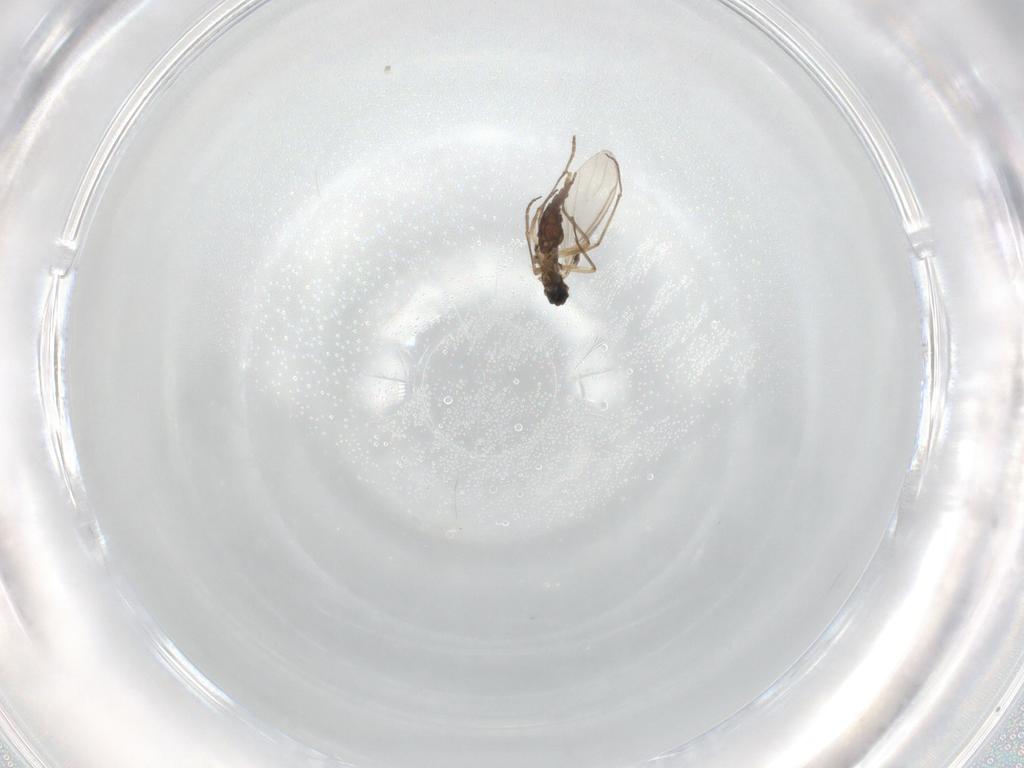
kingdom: Animalia
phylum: Arthropoda
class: Insecta
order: Diptera
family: Sciaridae
